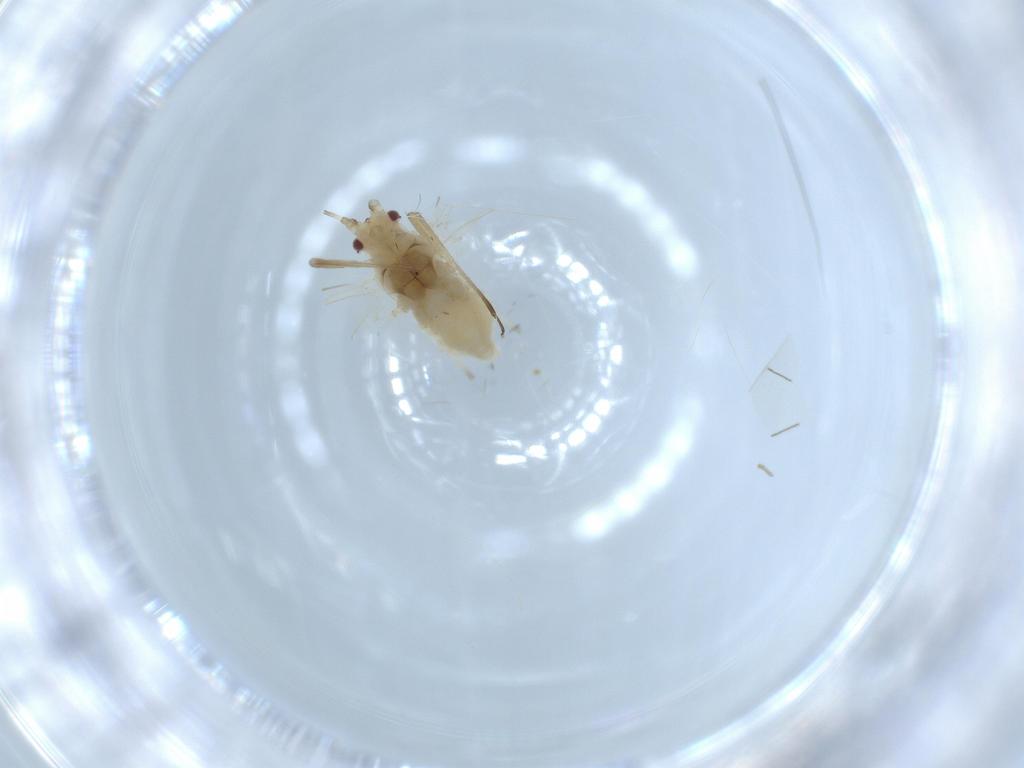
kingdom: Animalia
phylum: Arthropoda
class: Insecta
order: Hemiptera
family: Aphididae
